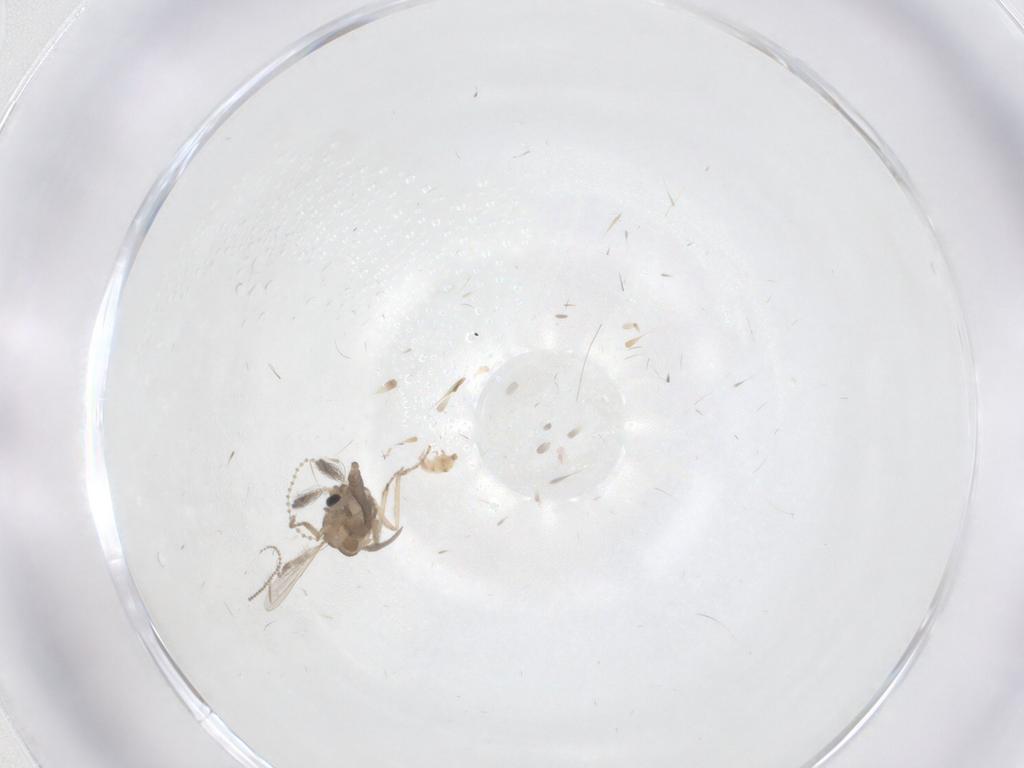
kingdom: Animalia
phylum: Arthropoda
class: Insecta
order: Diptera
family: Ceratopogonidae
